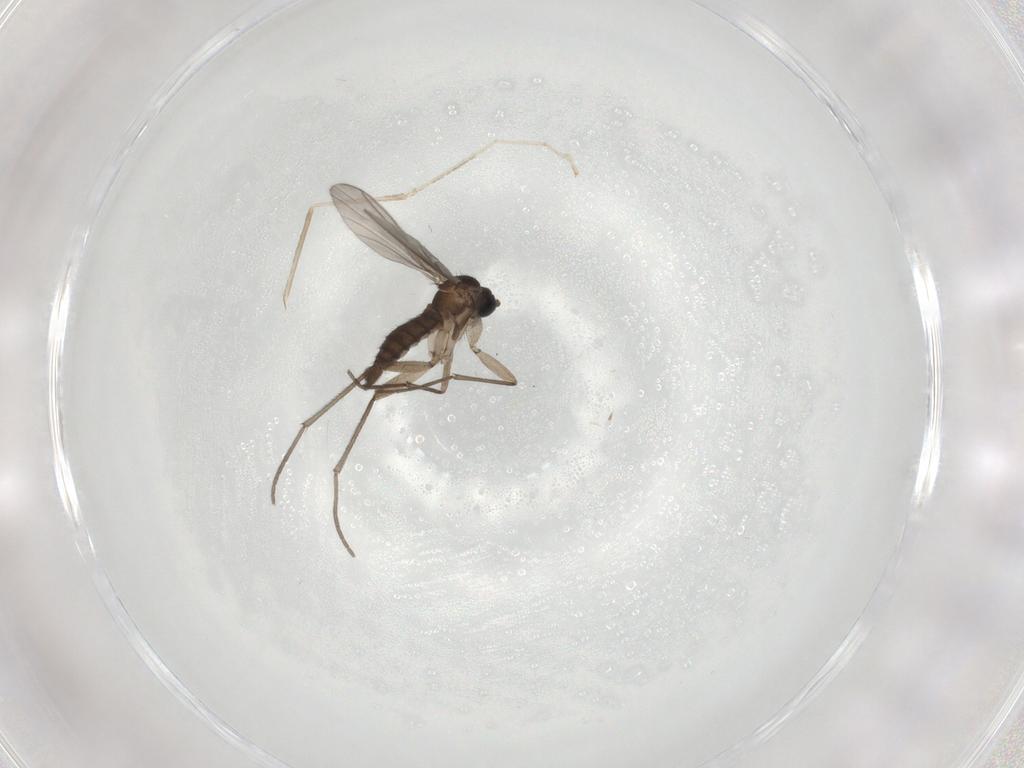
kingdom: Animalia
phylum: Arthropoda
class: Insecta
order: Diptera
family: Sciaridae
